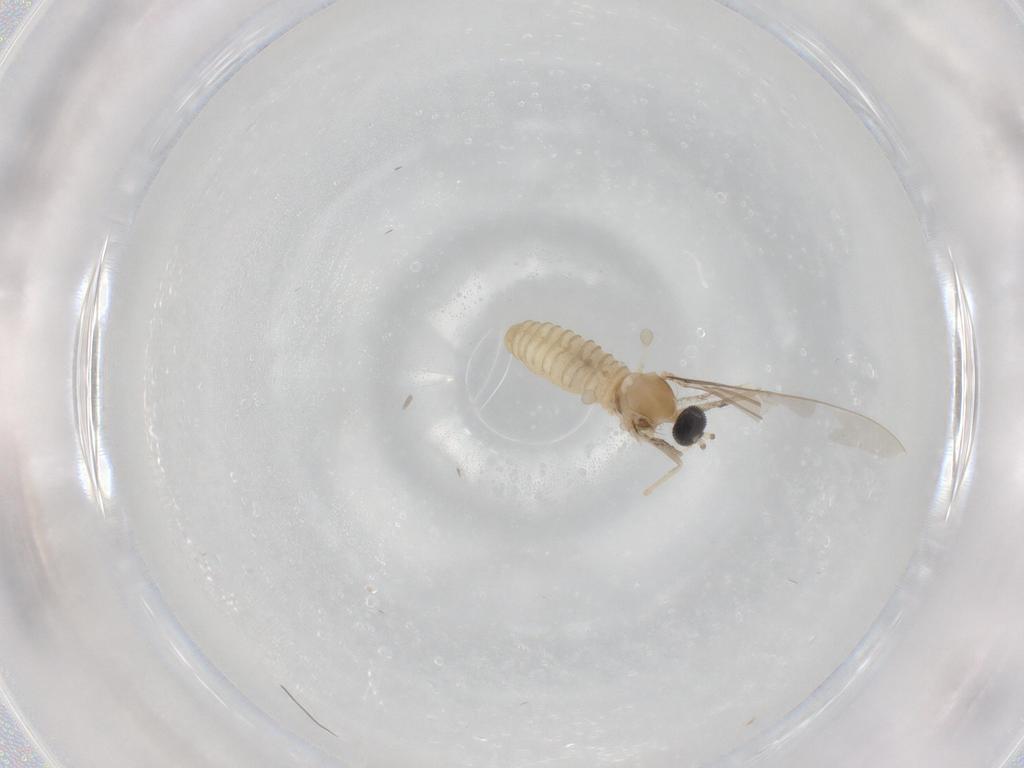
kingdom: Animalia
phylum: Arthropoda
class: Insecta
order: Diptera
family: Cecidomyiidae
